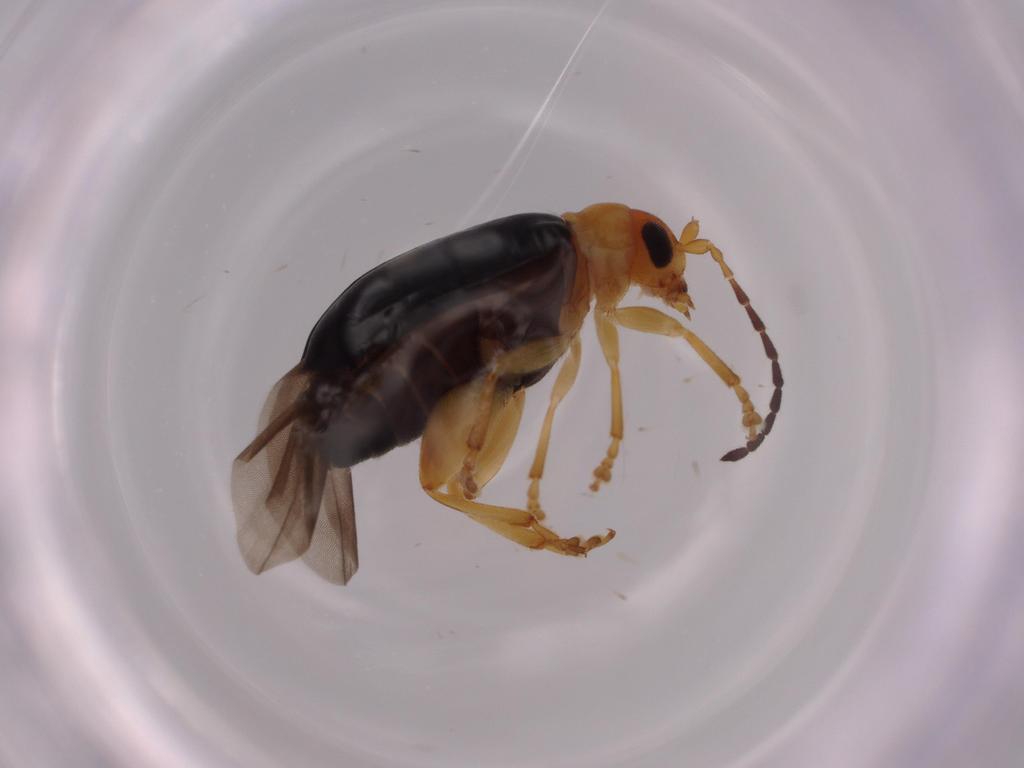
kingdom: Animalia
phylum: Arthropoda
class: Insecta
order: Coleoptera
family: Chrysomelidae
